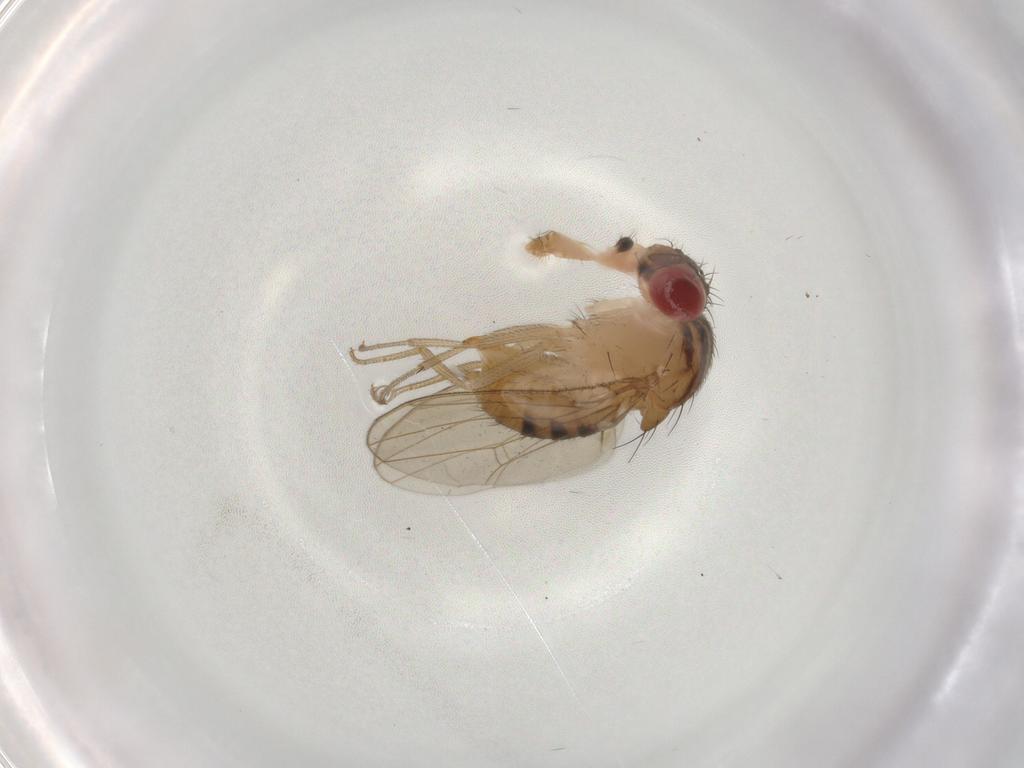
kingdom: Animalia
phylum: Arthropoda
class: Insecta
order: Diptera
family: Drosophilidae
